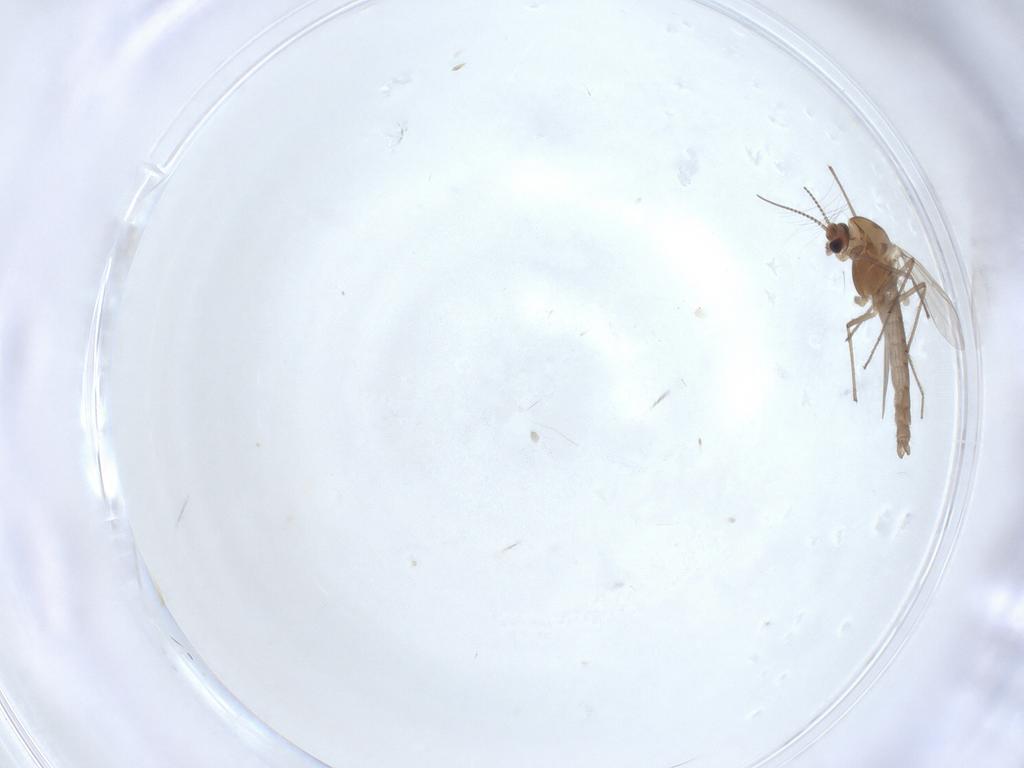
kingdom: Animalia
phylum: Arthropoda
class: Insecta
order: Diptera
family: Chironomidae
